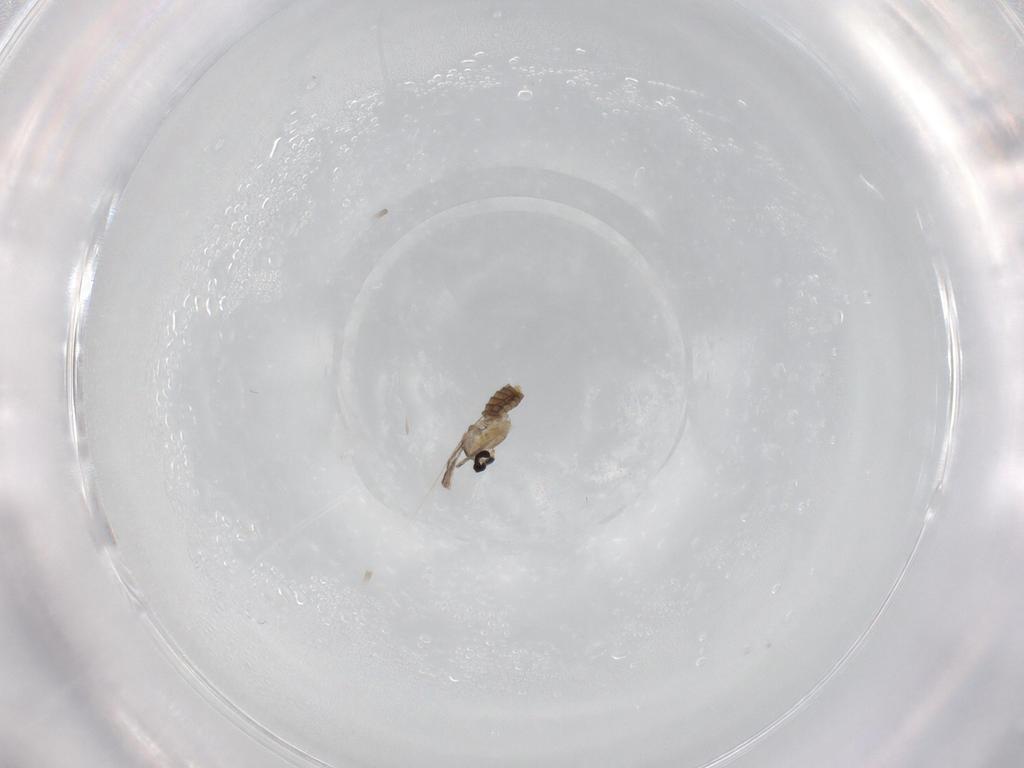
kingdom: Animalia
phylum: Arthropoda
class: Insecta
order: Diptera
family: Cecidomyiidae
